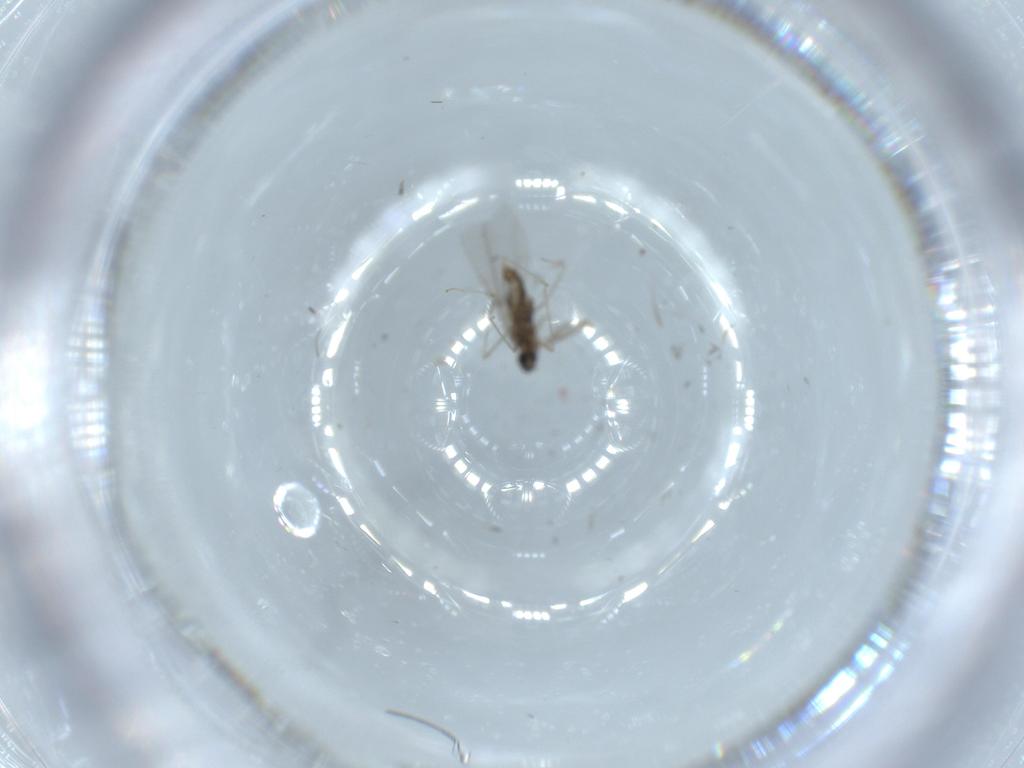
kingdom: Animalia
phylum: Arthropoda
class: Insecta
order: Diptera
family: Cecidomyiidae
